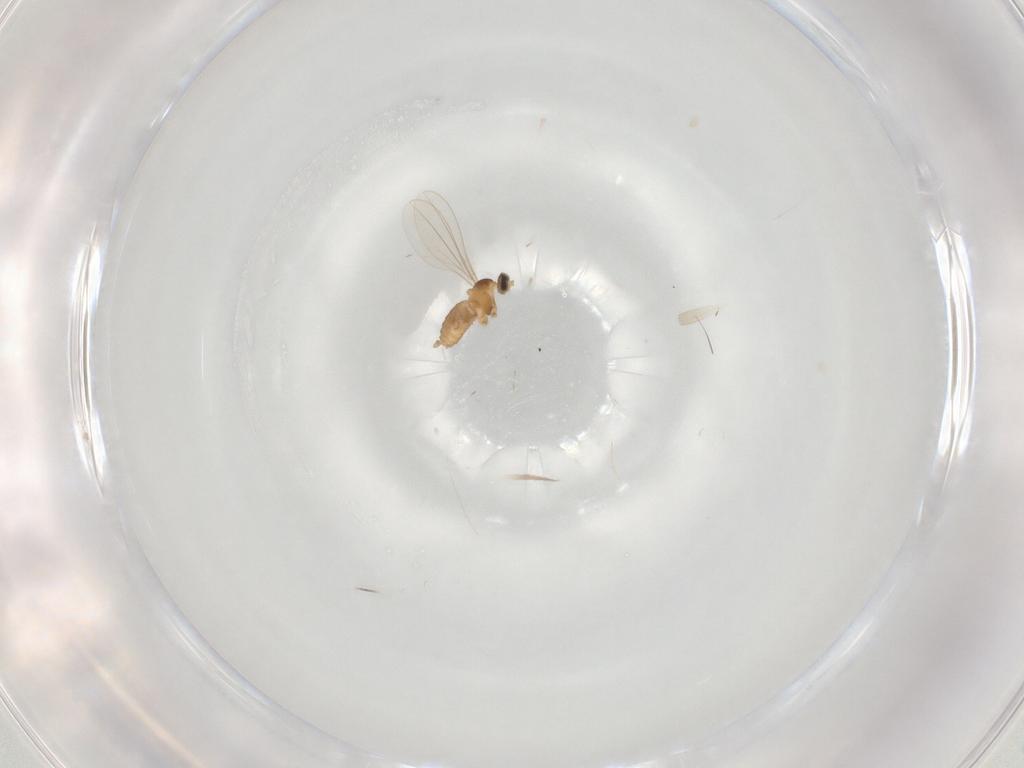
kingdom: Animalia
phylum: Arthropoda
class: Insecta
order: Diptera
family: Cecidomyiidae
